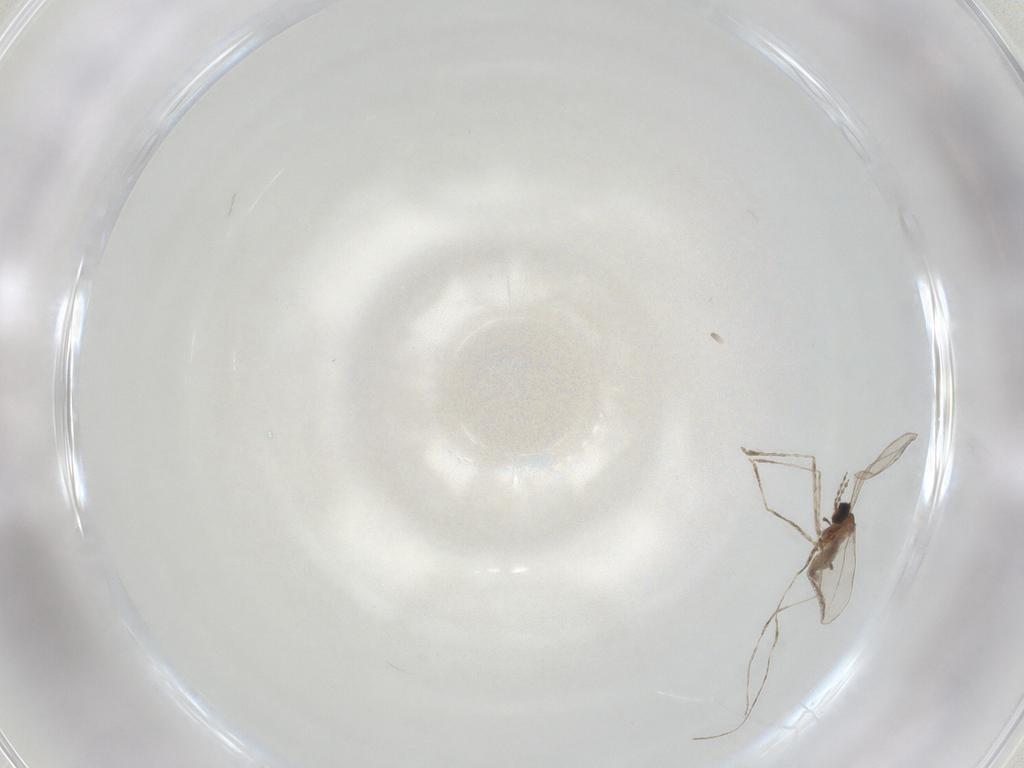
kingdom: Animalia
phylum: Arthropoda
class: Insecta
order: Diptera
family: Cecidomyiidae
